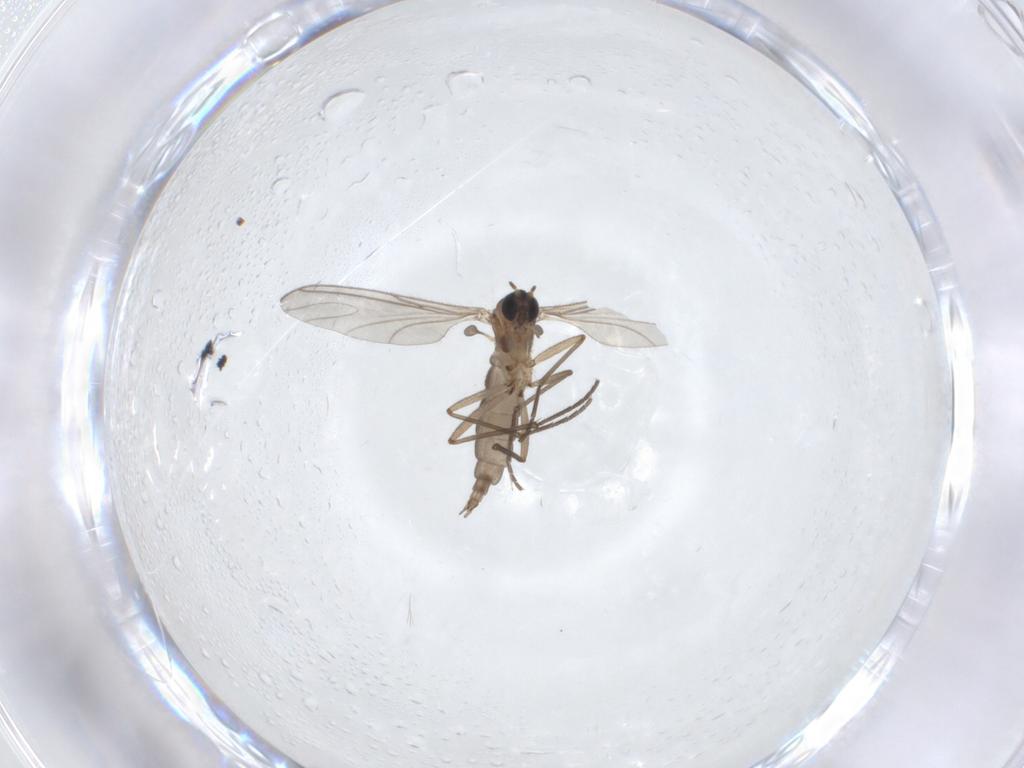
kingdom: Animalia
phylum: Arthropoda
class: Insecta
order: Diptera
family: Sciaridae
